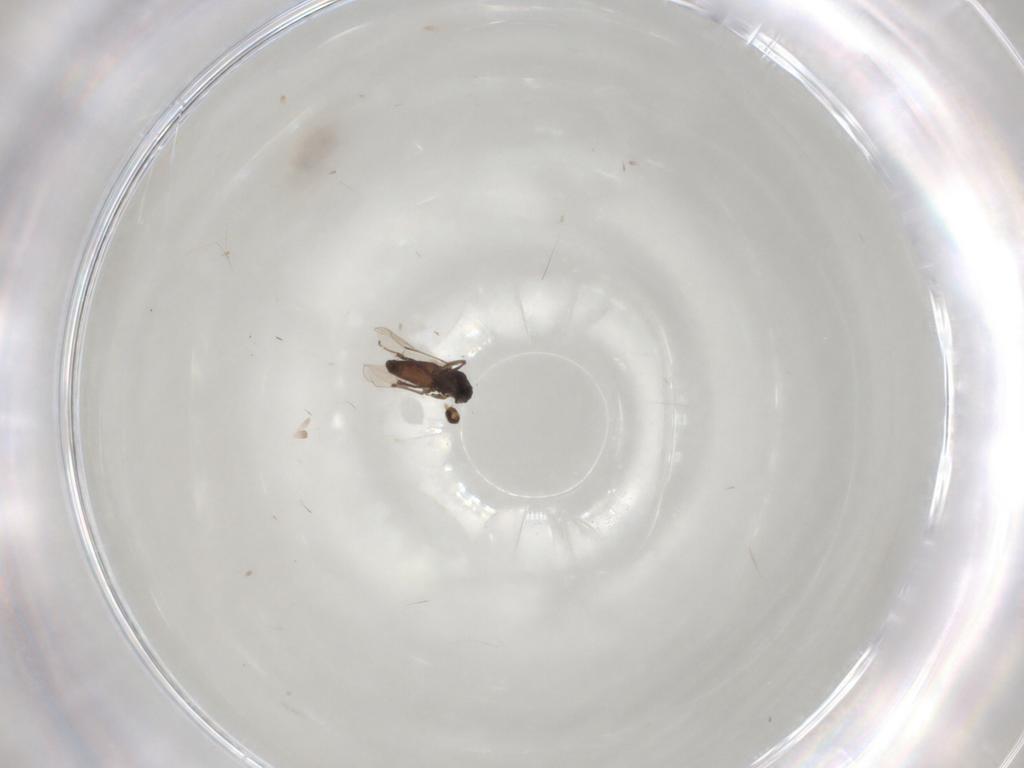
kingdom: Animalia
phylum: Arthropoda
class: Insecta
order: Diptera
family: Ceratopogonidae
